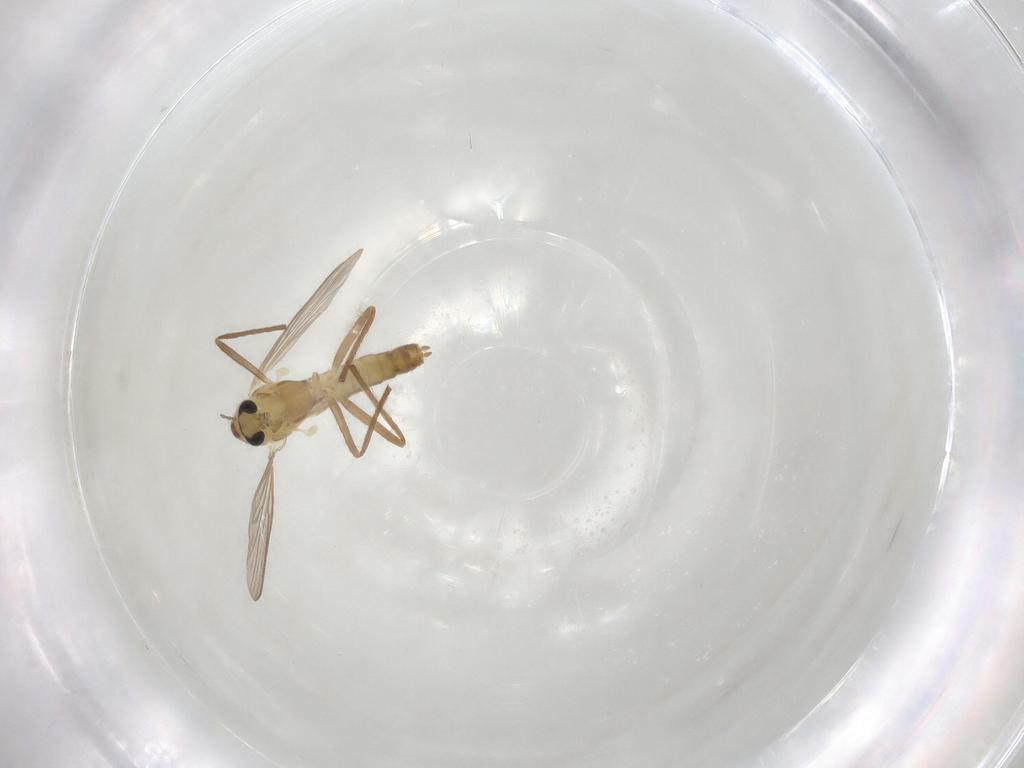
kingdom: Animalia
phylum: Arthropoda
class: Insecta
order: Diptera
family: Chironomidae
